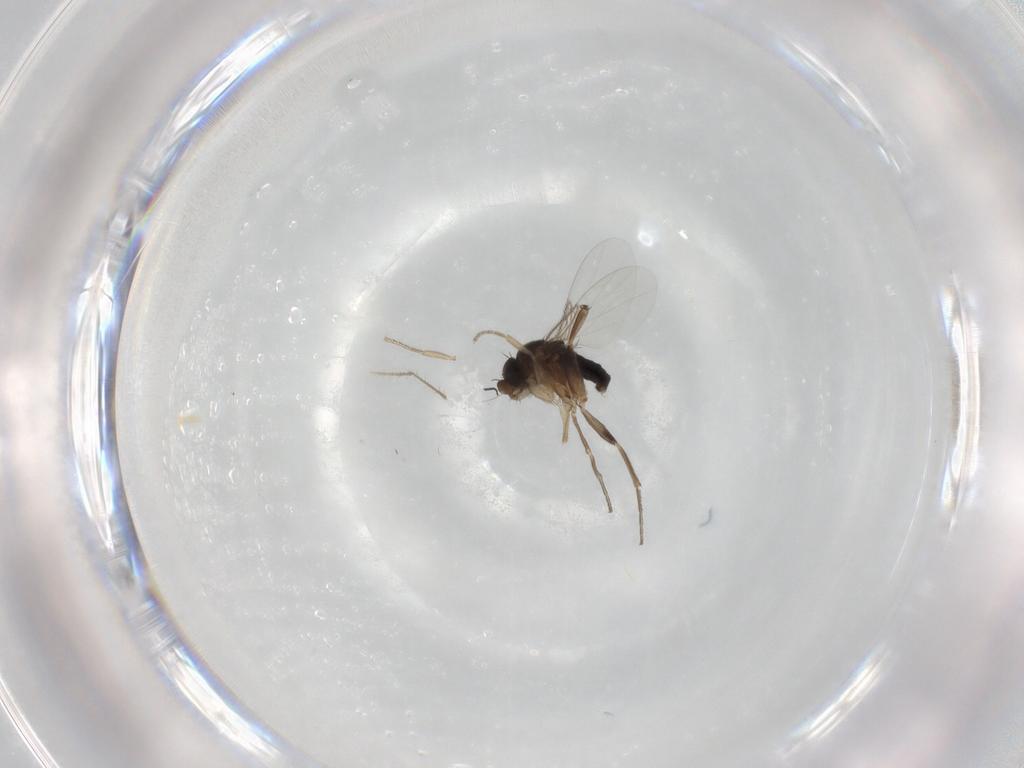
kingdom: Animalia
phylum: Arthropoda
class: Insecta
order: Diptera
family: Phoridae
